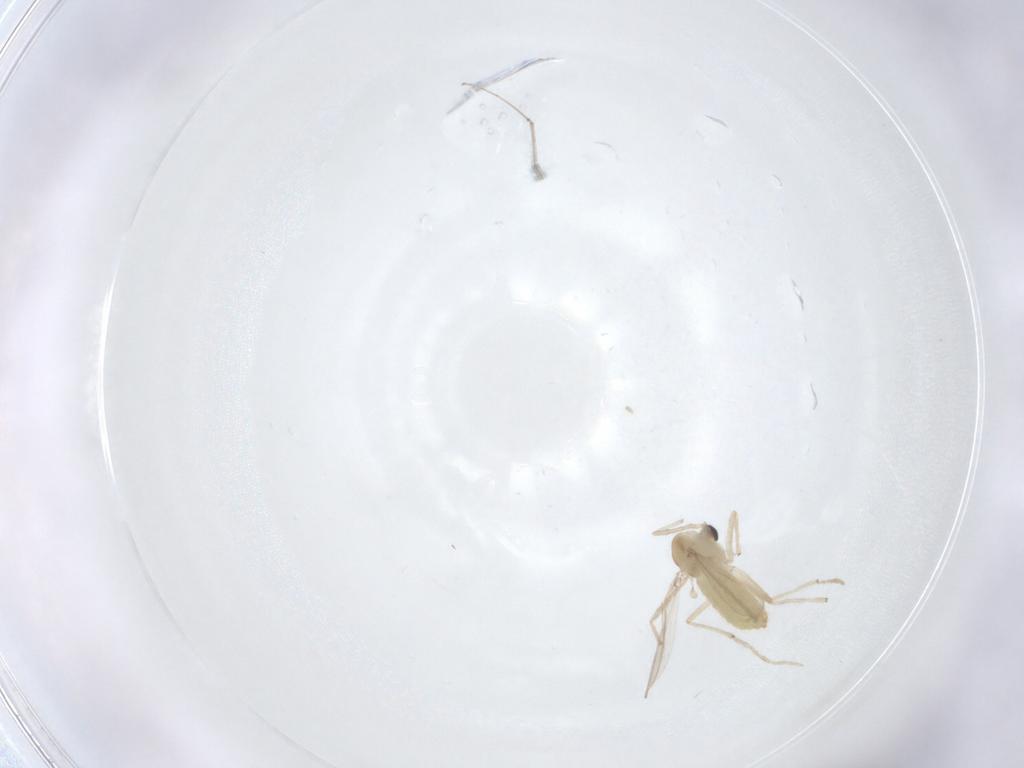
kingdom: Animalia
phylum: Arthropoda
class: Insecta
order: Diptera
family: Chironomidae
